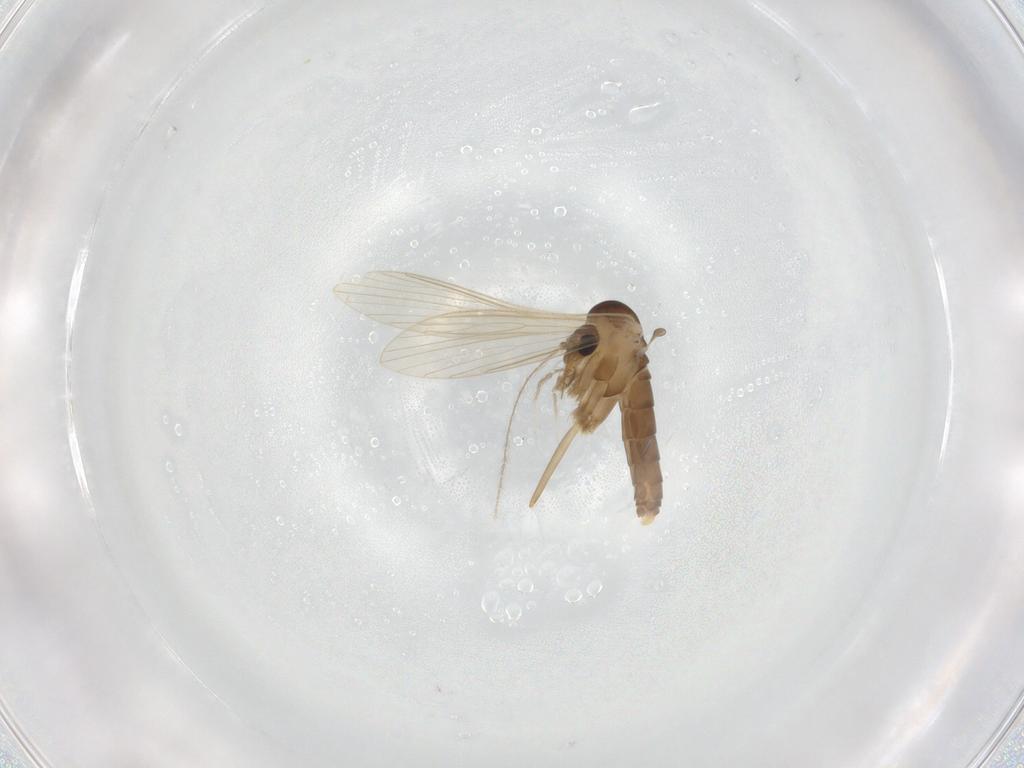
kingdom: Animalia
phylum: Arthropoda
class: Insecta
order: Diptera
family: Psychodidae
